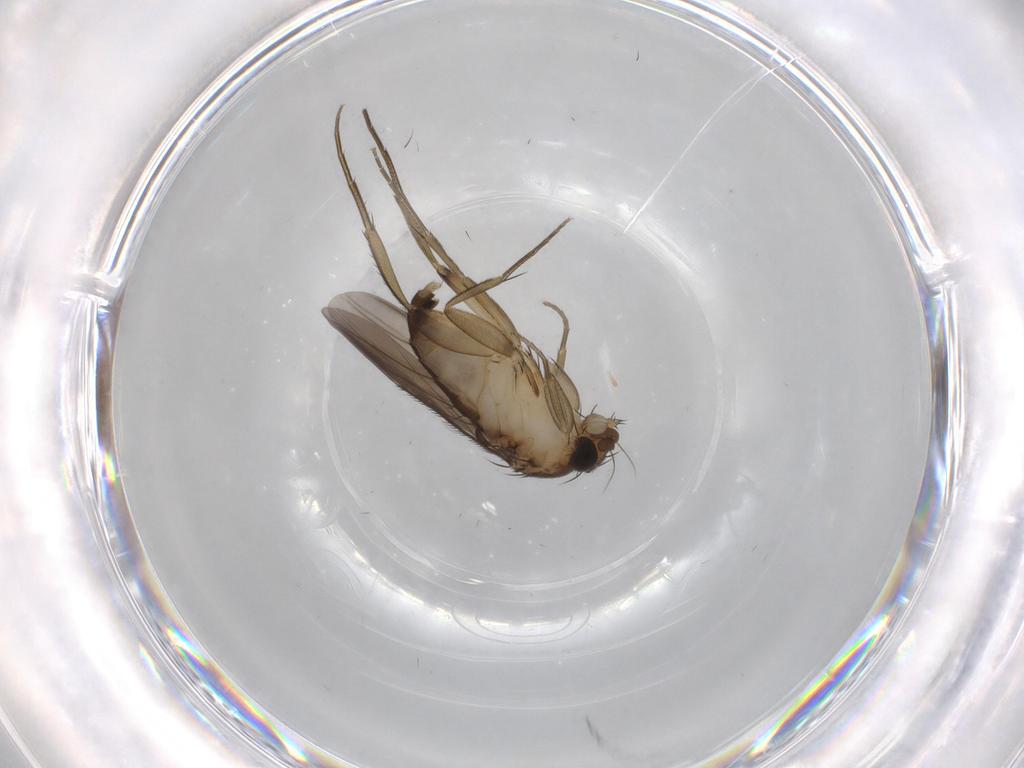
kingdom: Animalia
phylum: Arthropoda
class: Insecta
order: Diptera
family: Phoridae
